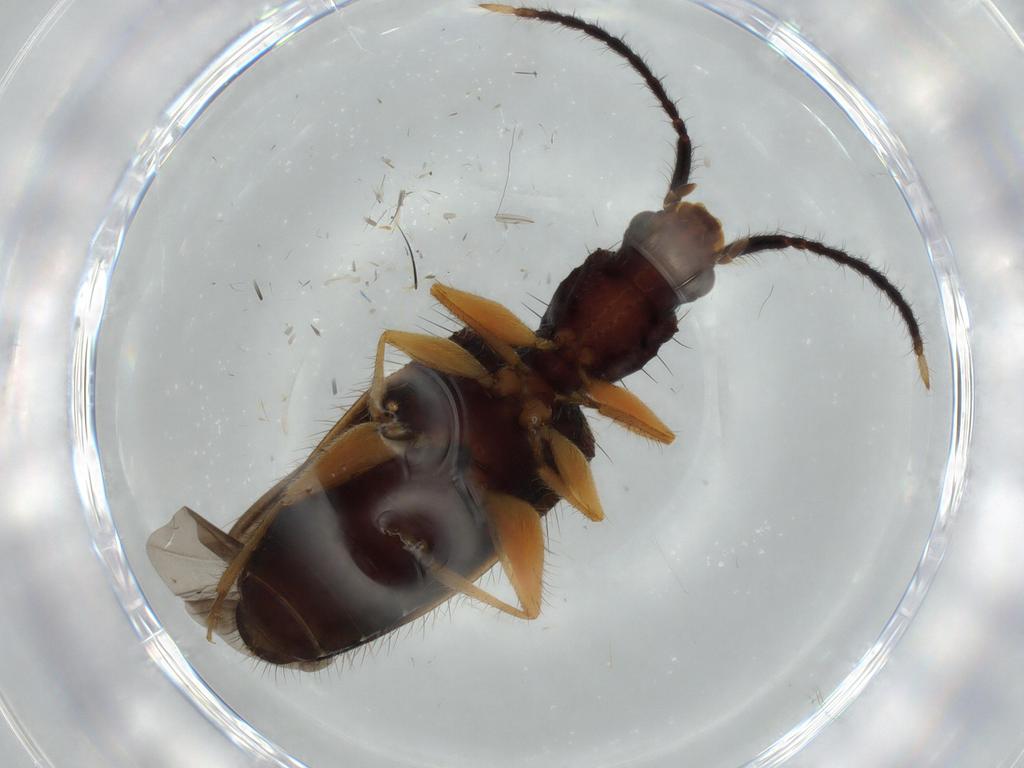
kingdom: Animalia
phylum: Arthropoda
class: Insecta
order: Coleoptera
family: Silvanidae
